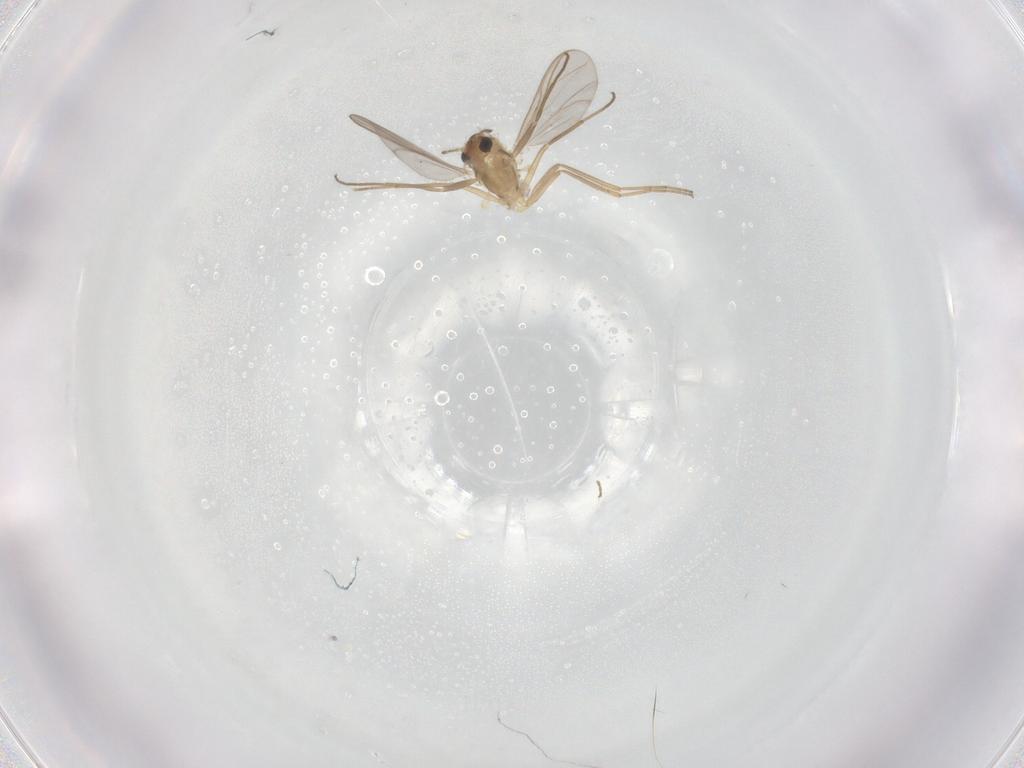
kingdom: Animalia
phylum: Arthropoda
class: Insecta
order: Diptera
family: Chironomidae
